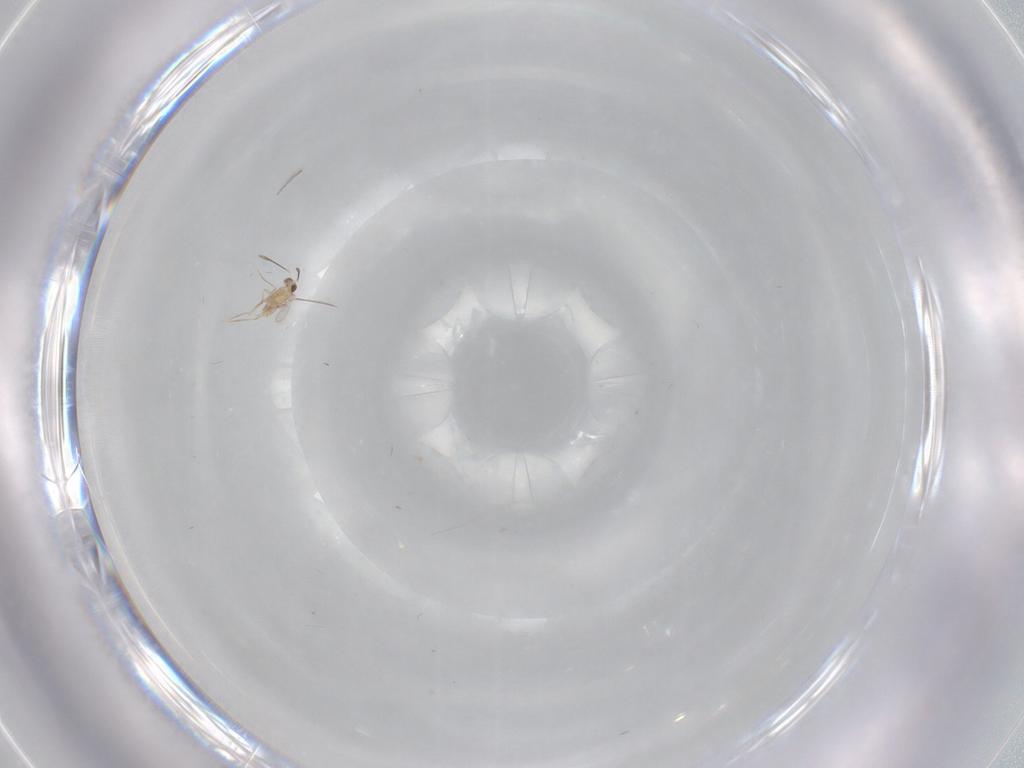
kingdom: Animalia
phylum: Arthropoda
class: Insecta
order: Hymenoptera
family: Mymaridae
